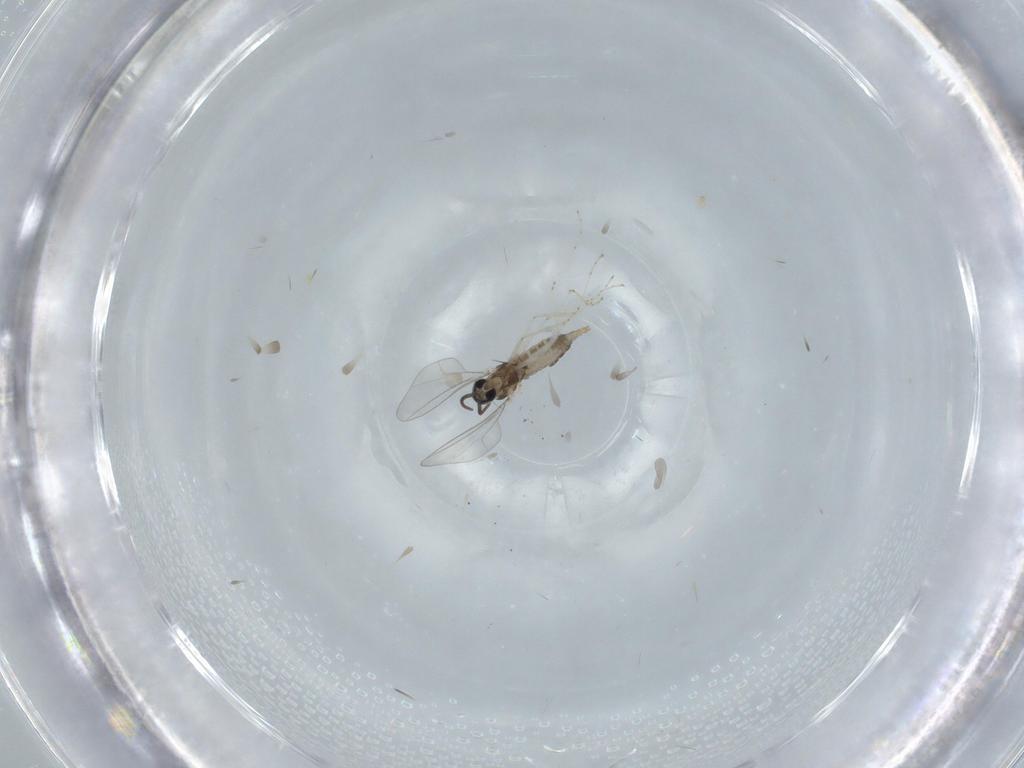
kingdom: Animalia
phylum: Arthropoda
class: Insecta
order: Diptera
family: Cecidomyiidae
